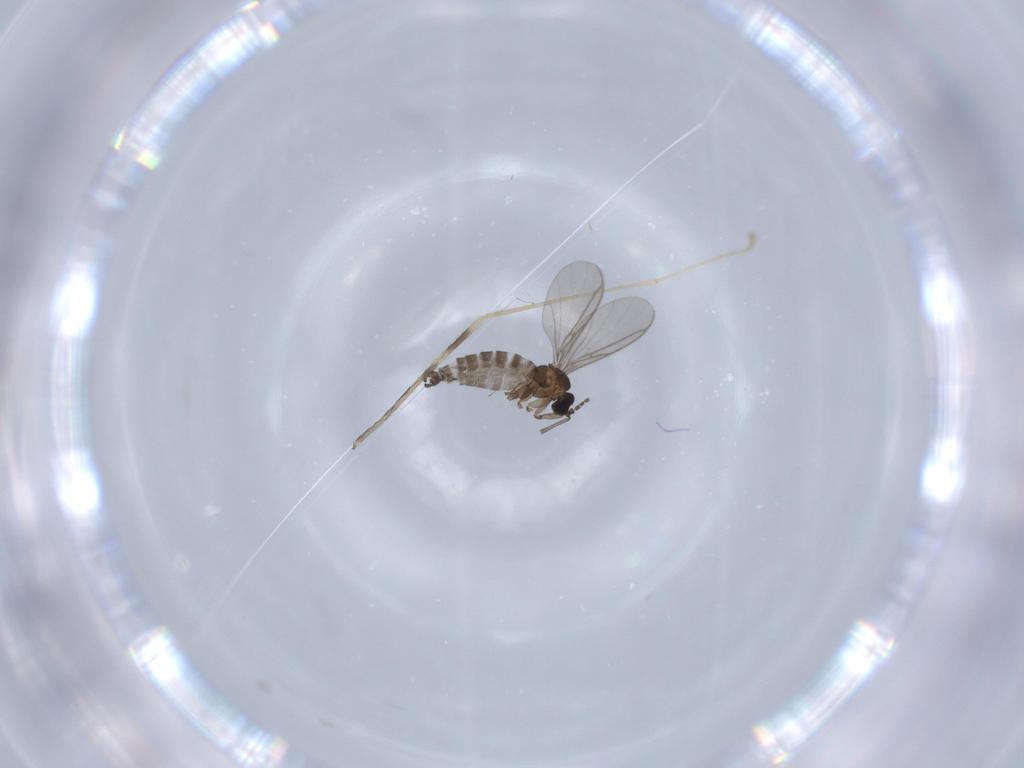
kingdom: Animalia
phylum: Arthropoda
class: Insecta
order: Diptera
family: Limoniidae
